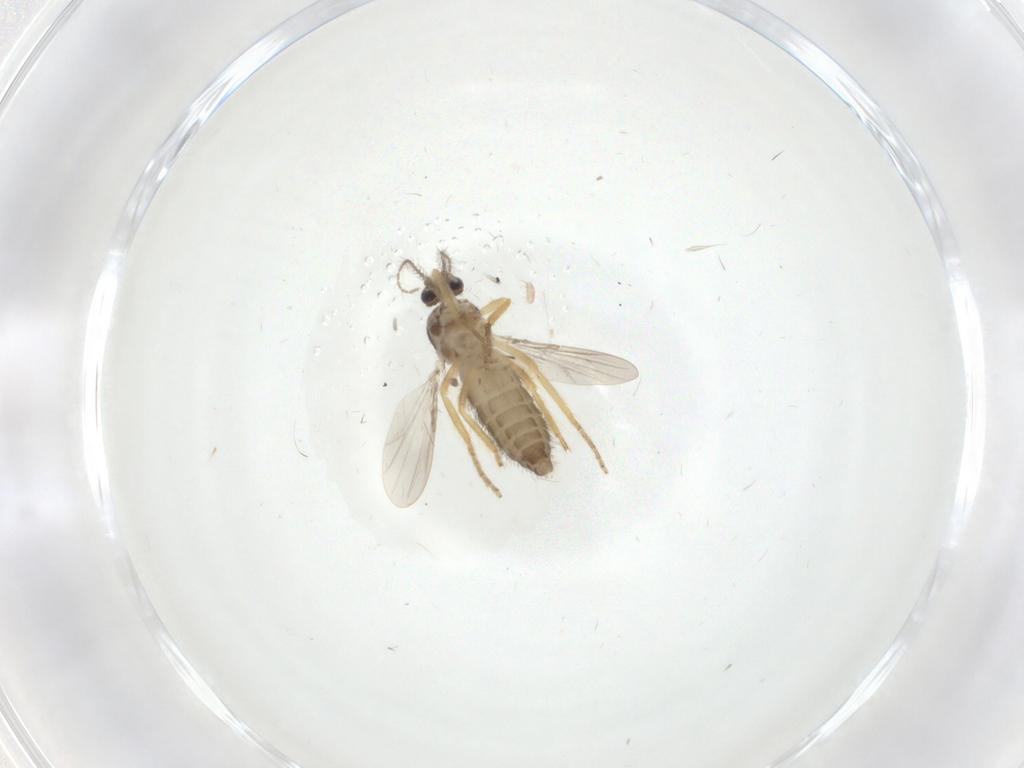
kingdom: Animalia
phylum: Arthropoda
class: Insecta
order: Diptera
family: Ceratopogonidae
